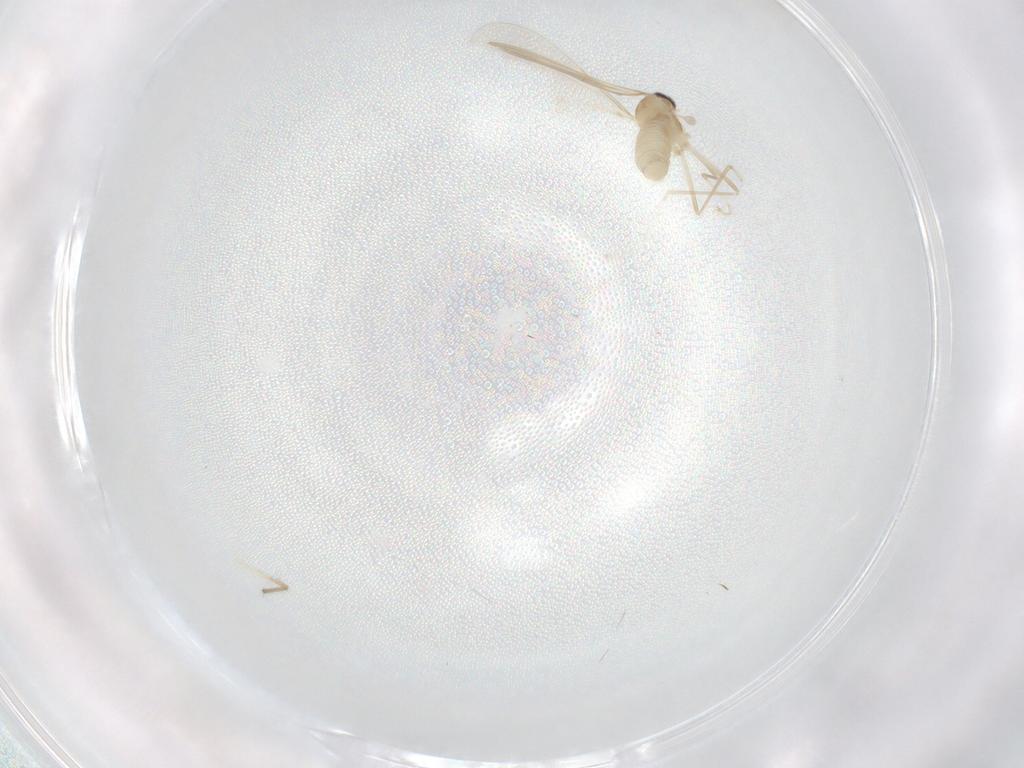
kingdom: Animalia
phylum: Arthropoda
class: Insecta
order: Diptera
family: Cecidomyiidae
